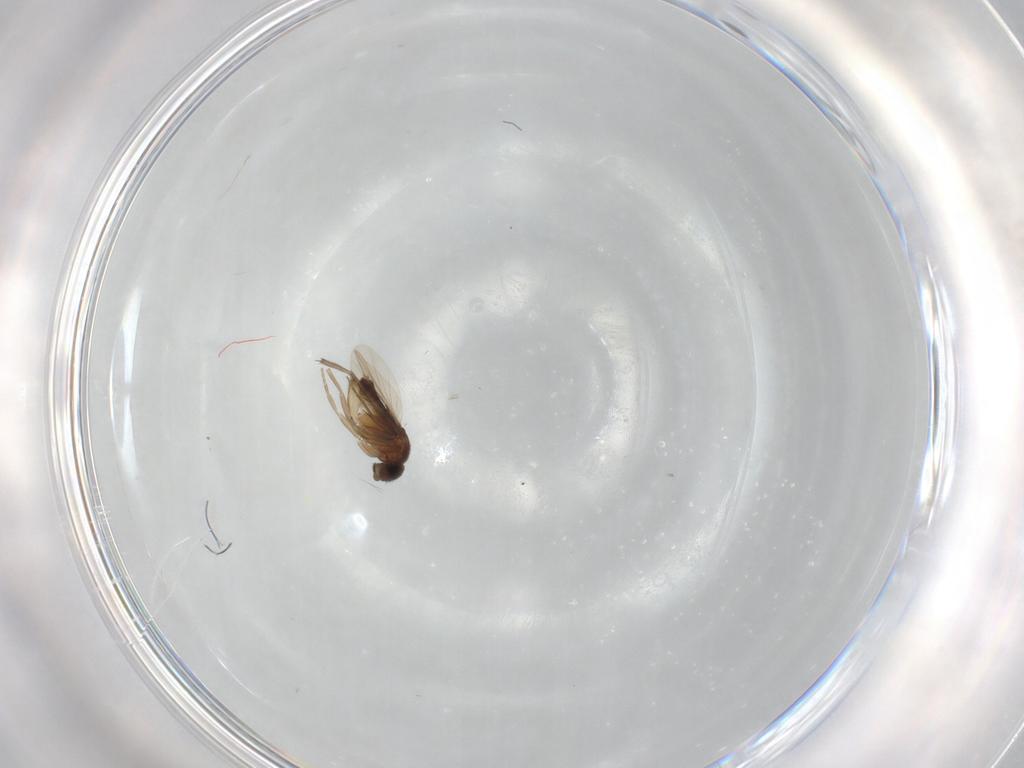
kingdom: Animalia
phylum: Arthropoda
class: Insecta
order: Diptera
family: Phoridae
